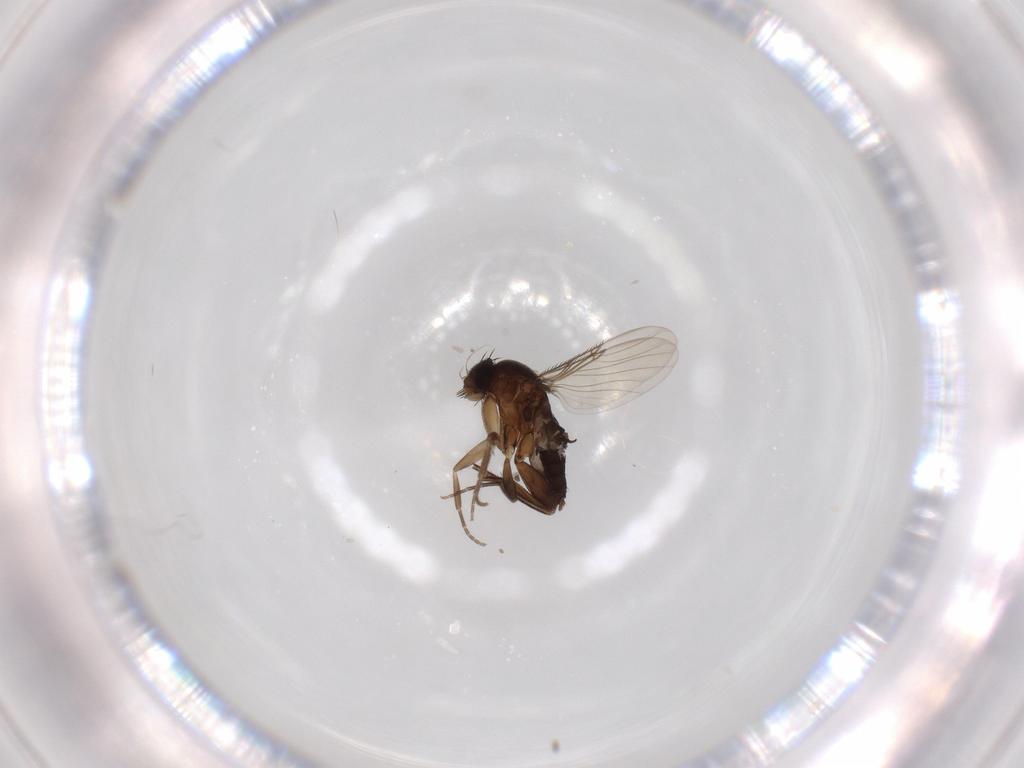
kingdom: Animalia
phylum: Arthropoda
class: Insecta
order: Diptera
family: Phoridae
